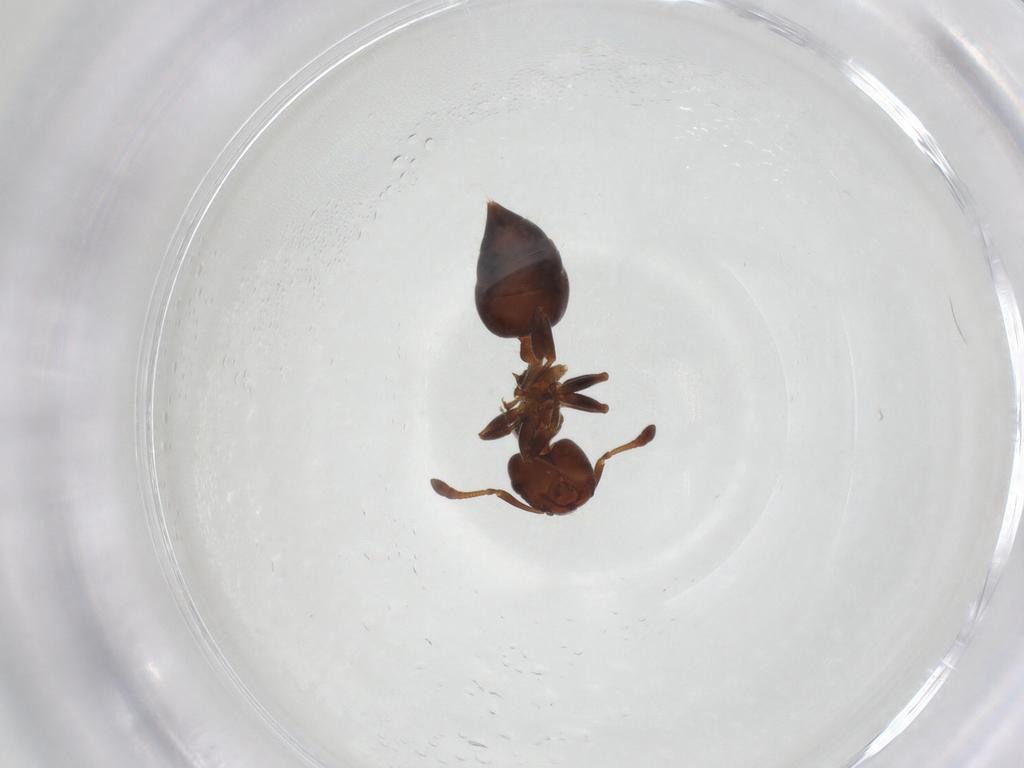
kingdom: Animalia
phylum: Arthropoda
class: Insecta
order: Hymenoptera
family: Formicidae
